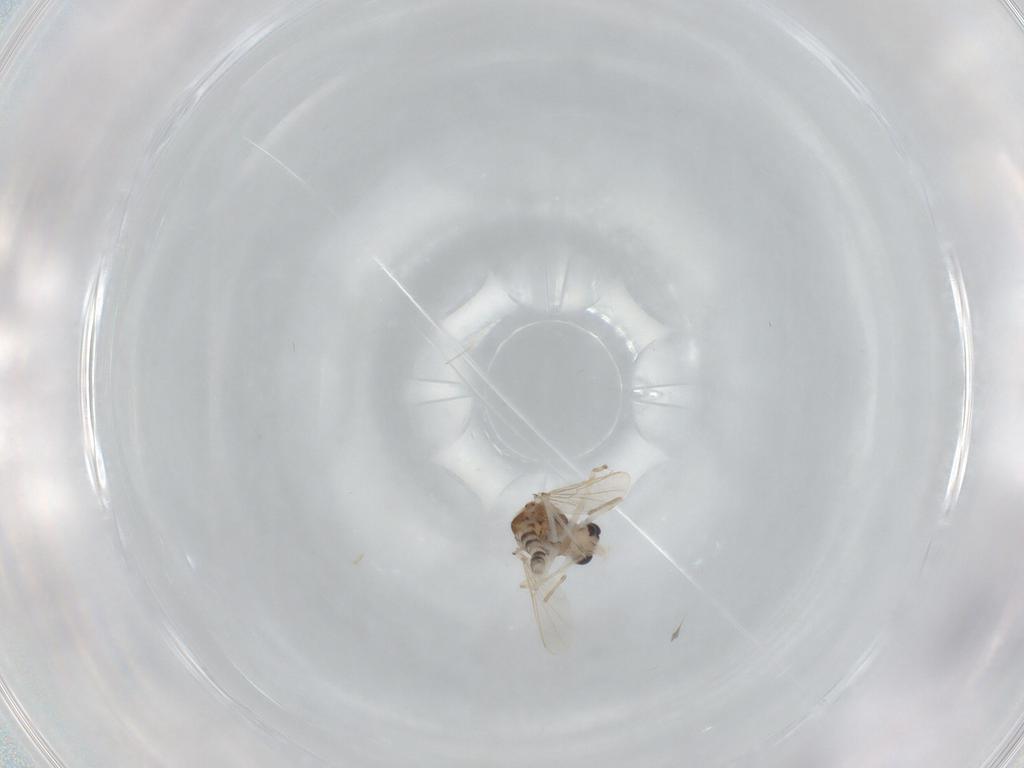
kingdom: Animalia
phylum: Arthropoda
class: Insecta
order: Diptera
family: Chironomidae
